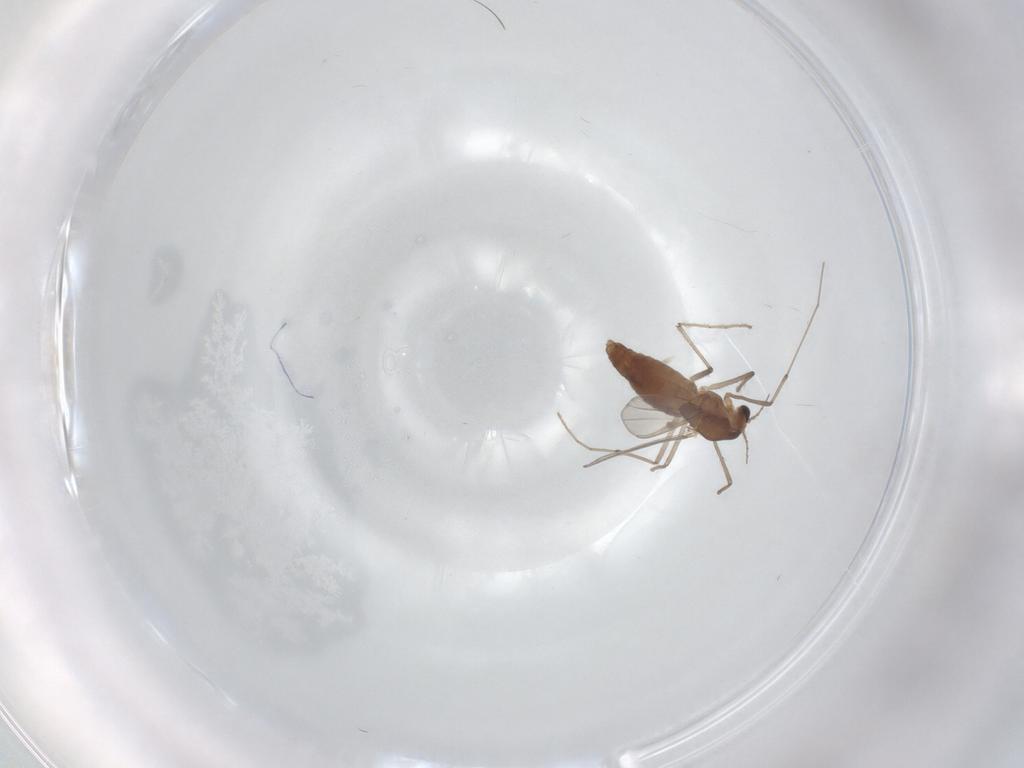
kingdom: Animalia
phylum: Arthropoda
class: Insecta
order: Diptera
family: Chironomidae
